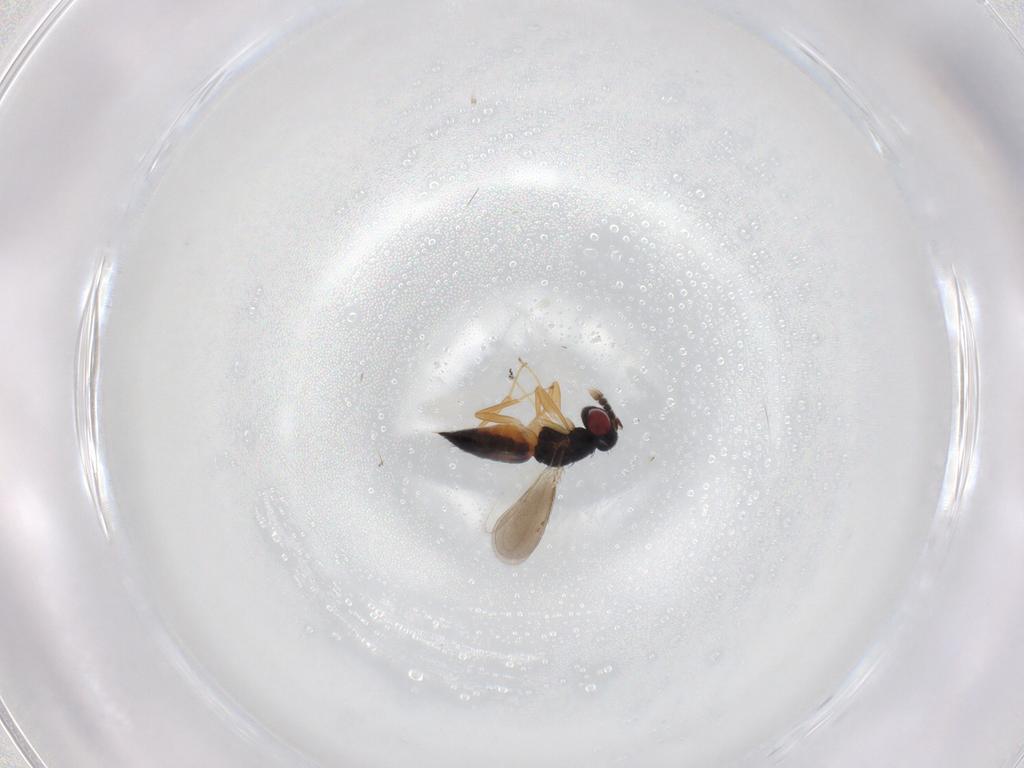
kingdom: Animalia
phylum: Arthropoda
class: Insecta
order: Hymenoptera
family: Eulophidae
